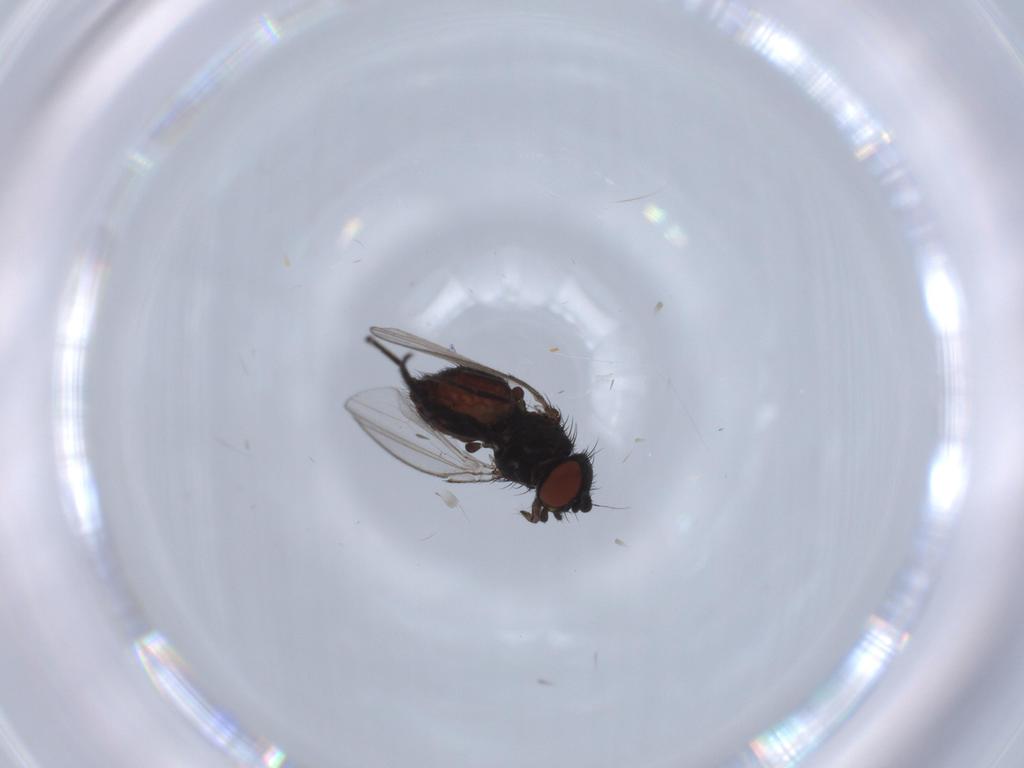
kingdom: Animalia
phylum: Arthropoda
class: Insecta
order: Diptera
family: Milichiidae
